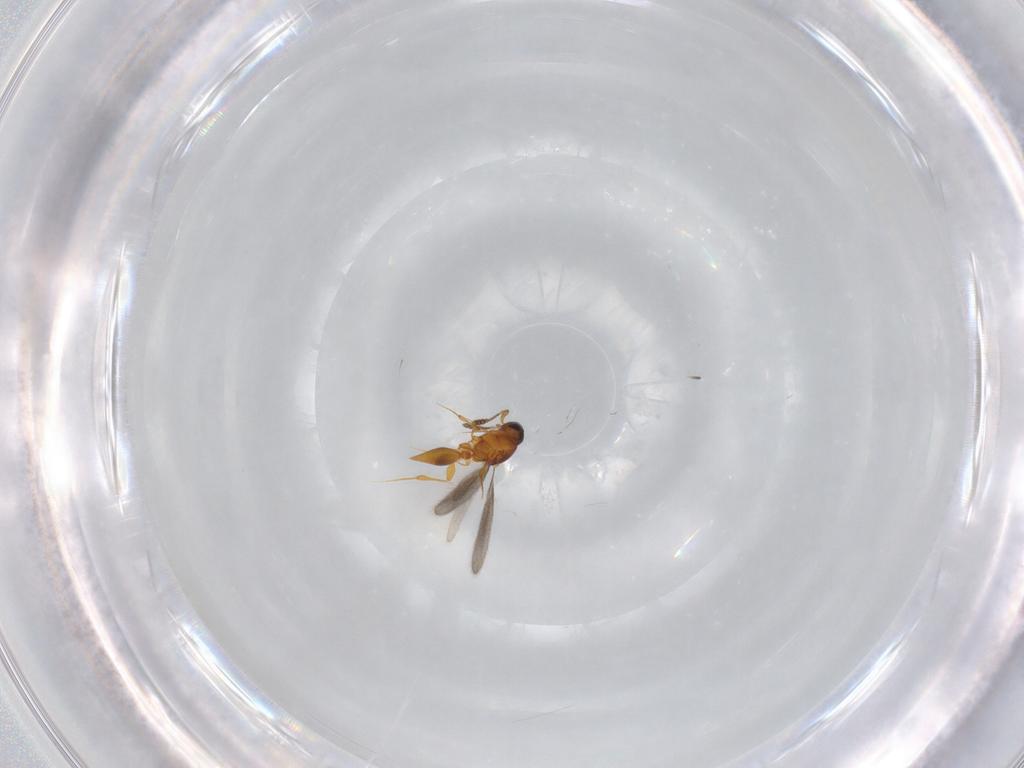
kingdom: Animalia
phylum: Arthropoda
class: Insecta
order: Hymenoptera
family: Platygastridae
